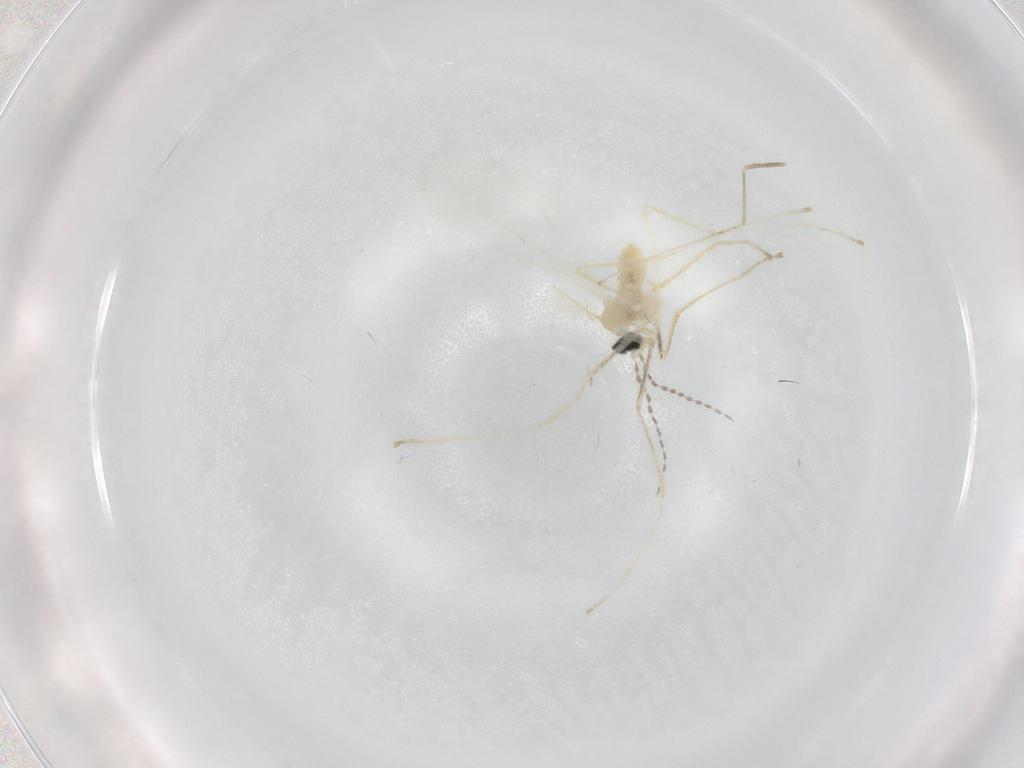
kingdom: Animalia
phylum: Arthropoda
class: Insecta
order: Diptera
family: Cecidomyiidae
